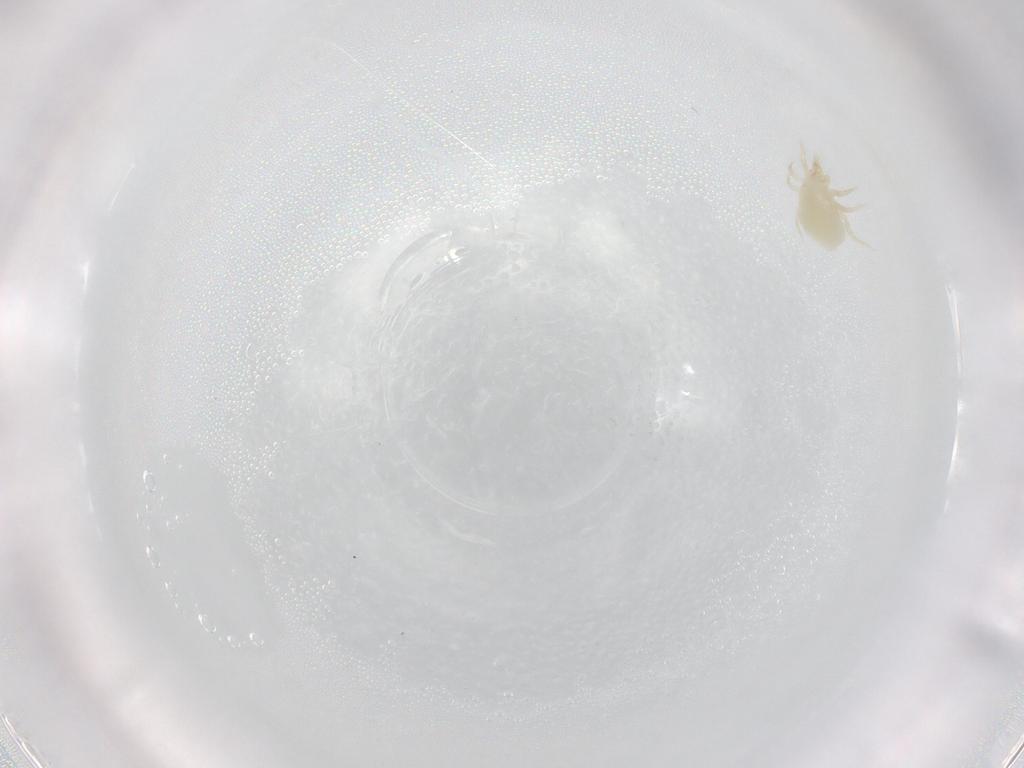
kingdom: Animalia
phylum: Arthropoda
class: Arachnida
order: Mesostigmata
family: Melicharidae
